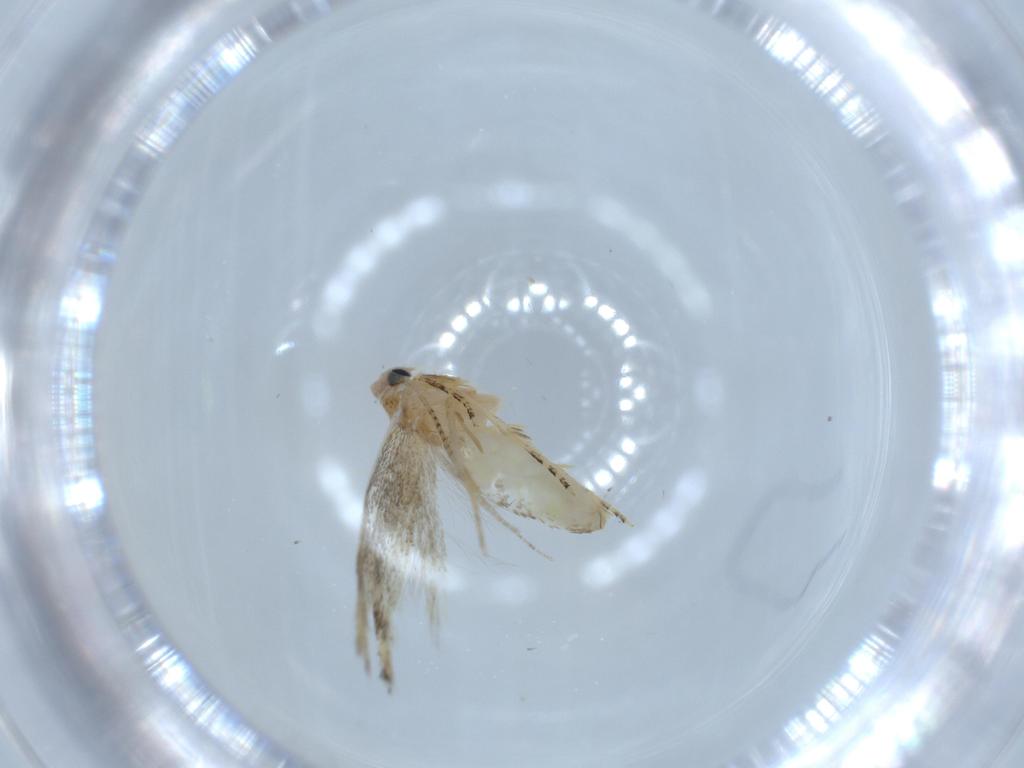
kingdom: Animalia
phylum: Arthropoda
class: Insecta
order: Lepidoptera
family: Bucculatricidae
